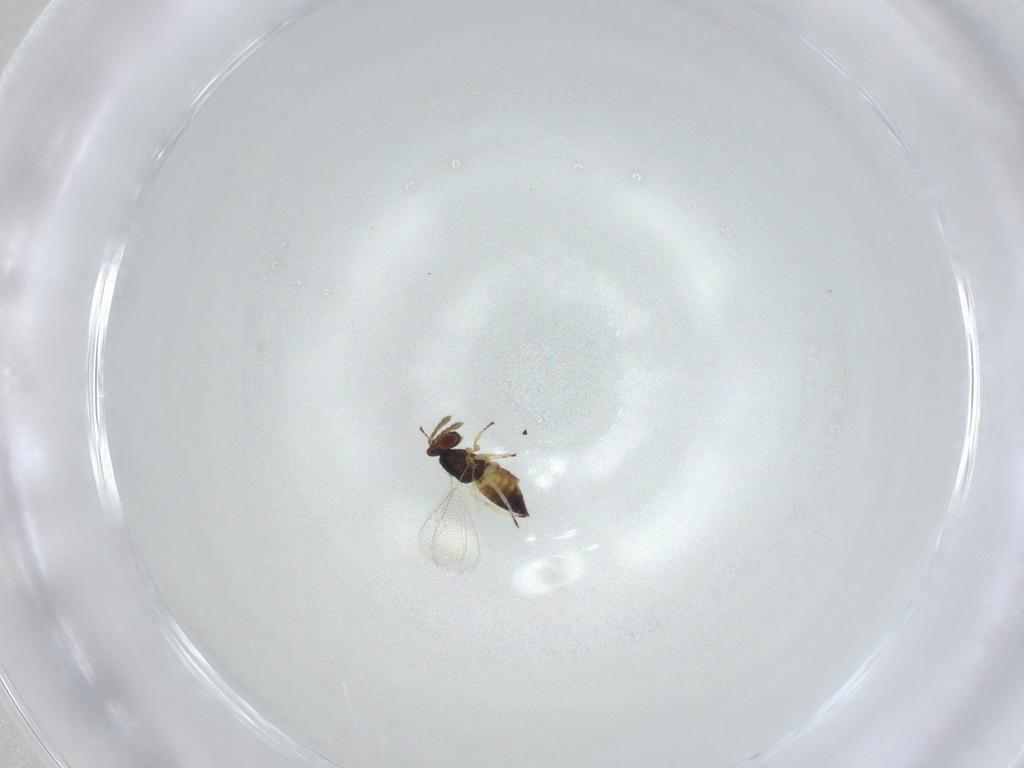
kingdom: Animalia
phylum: Arthropoda
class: Insecta
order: Hymenoptera
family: Eulophidae
